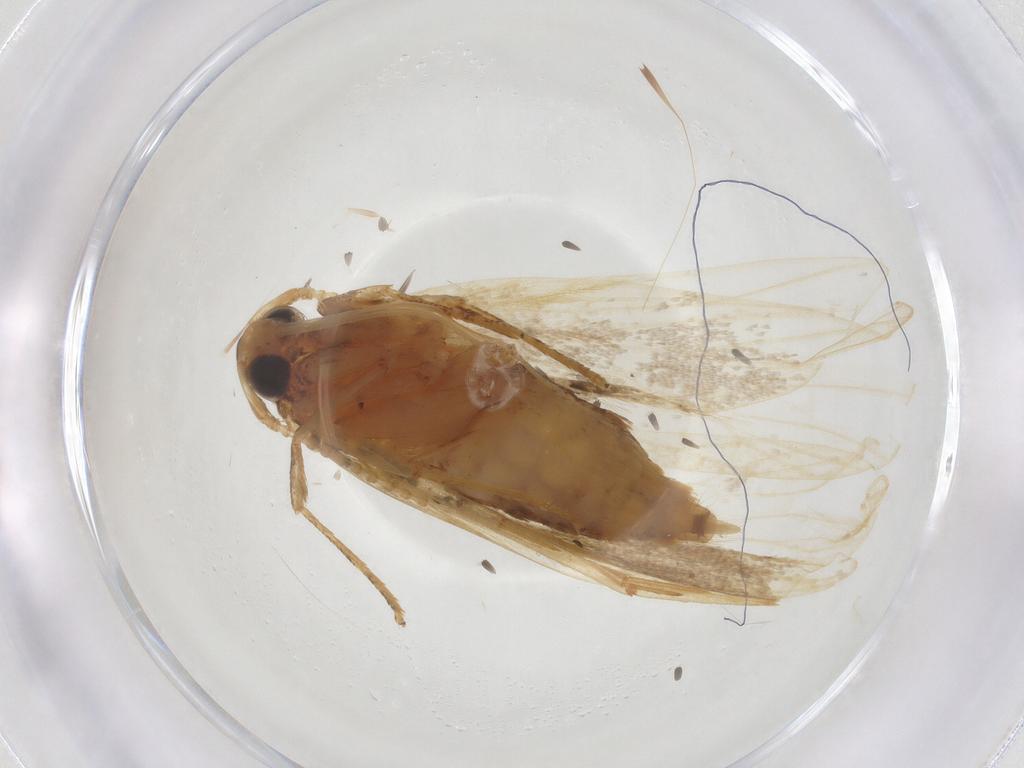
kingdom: Animalia
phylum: Arthropoda
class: Insecta
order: Lepidoptera
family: Lecithoceridae
